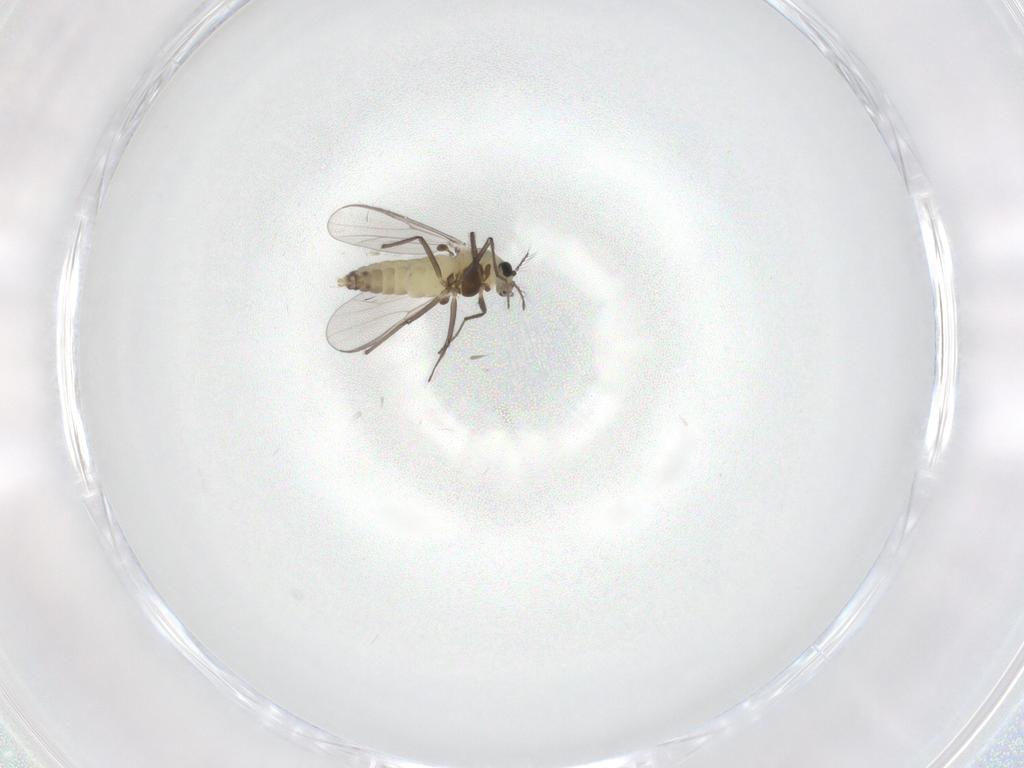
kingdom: Animalia
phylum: Arthropoda
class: Insecta
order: Diptera
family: Chironomidae
